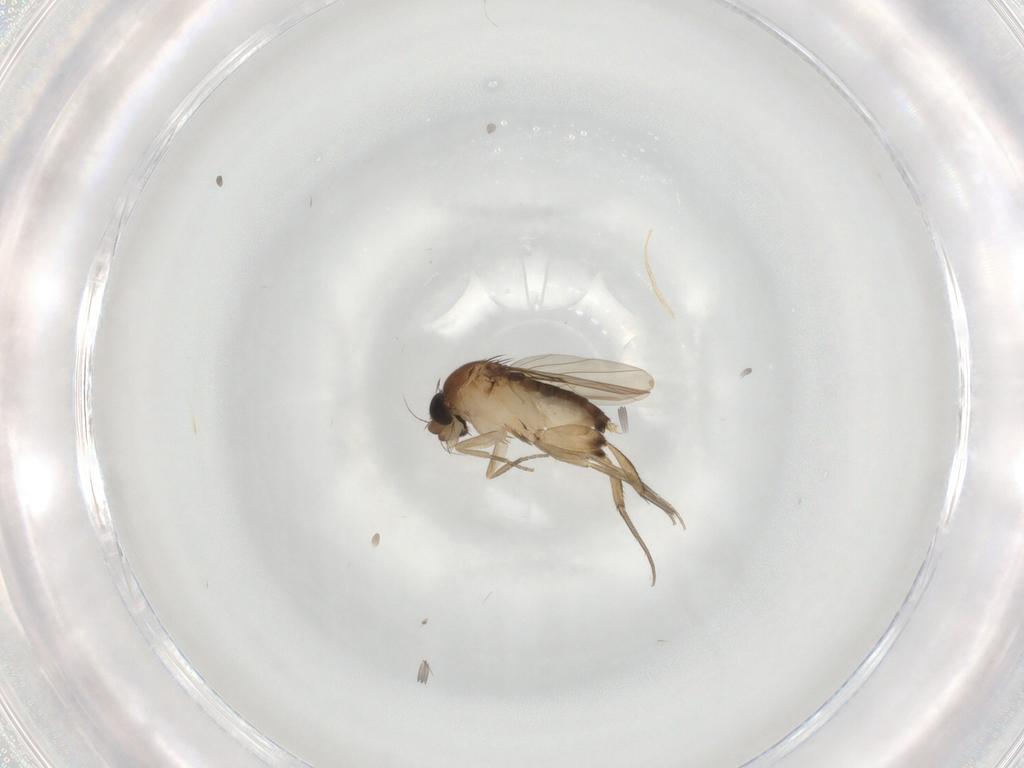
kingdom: Animalia
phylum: Arthropoda
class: Insecta
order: Diptera
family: Phoridae
